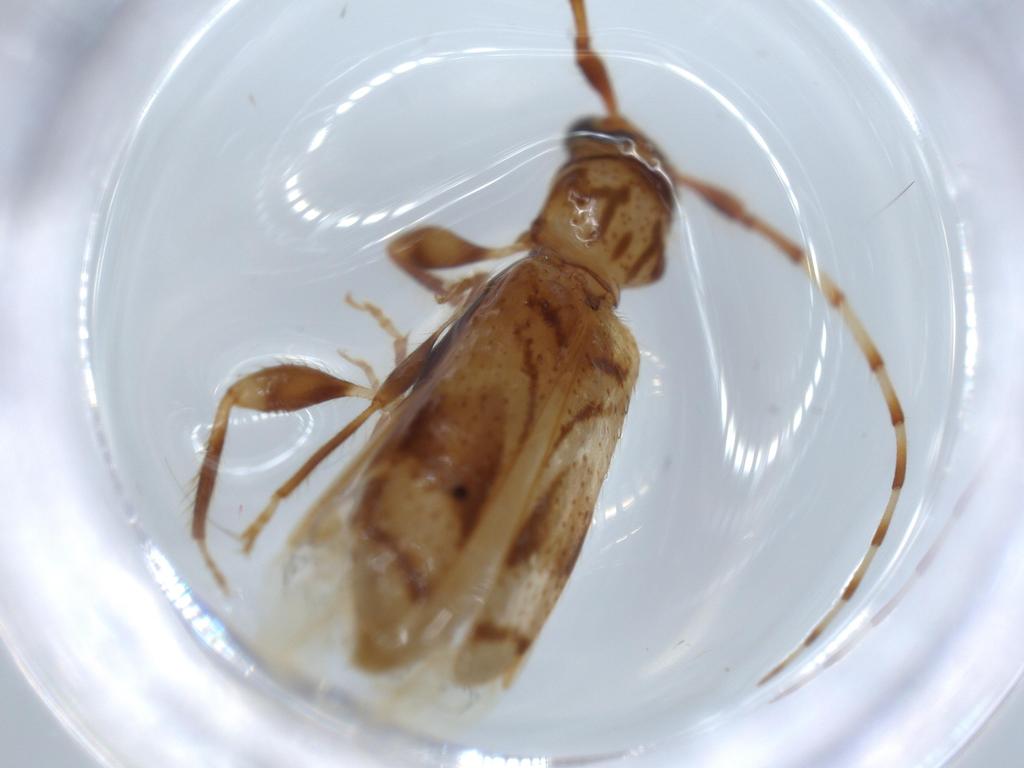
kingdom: Animalia
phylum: Arthropoda
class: Insecta
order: Coleoptera
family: Cerambycidae
